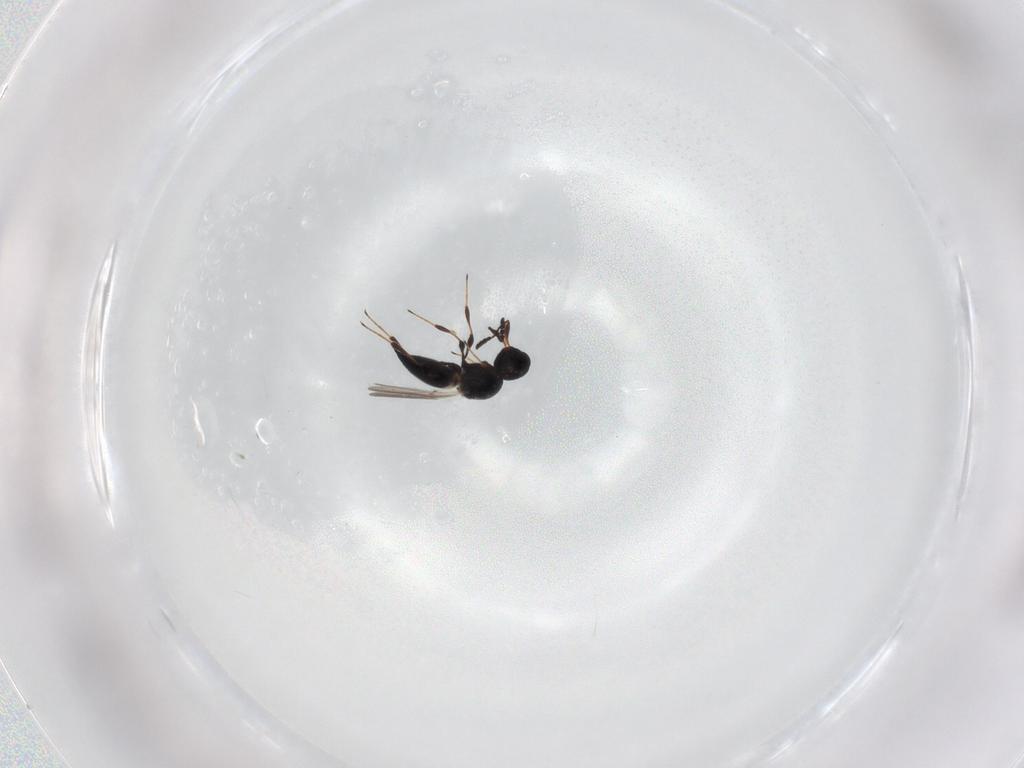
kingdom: Animalia
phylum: Arthropoda
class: Insecta
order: Hymenoptera
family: Platygastridae
